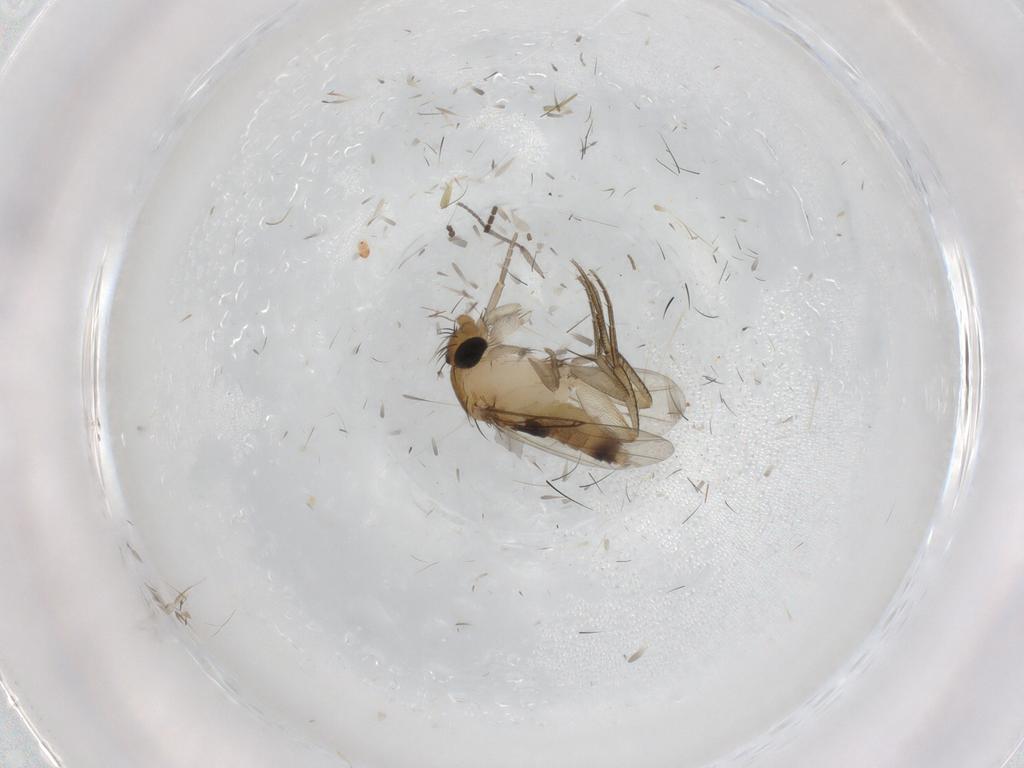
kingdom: Animalia
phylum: Arthropoda
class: Insecta
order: Diptera
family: Phoridae
